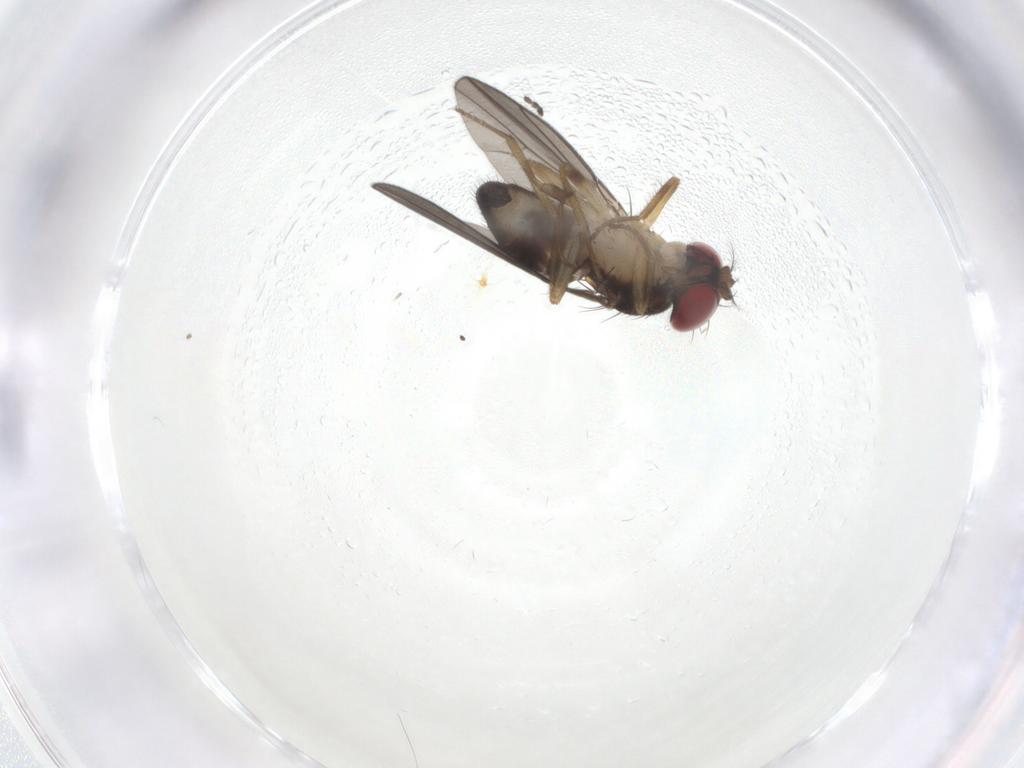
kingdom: Animalia
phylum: Arthropoda
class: Insecta
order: Diptera
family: Drosophilidae
